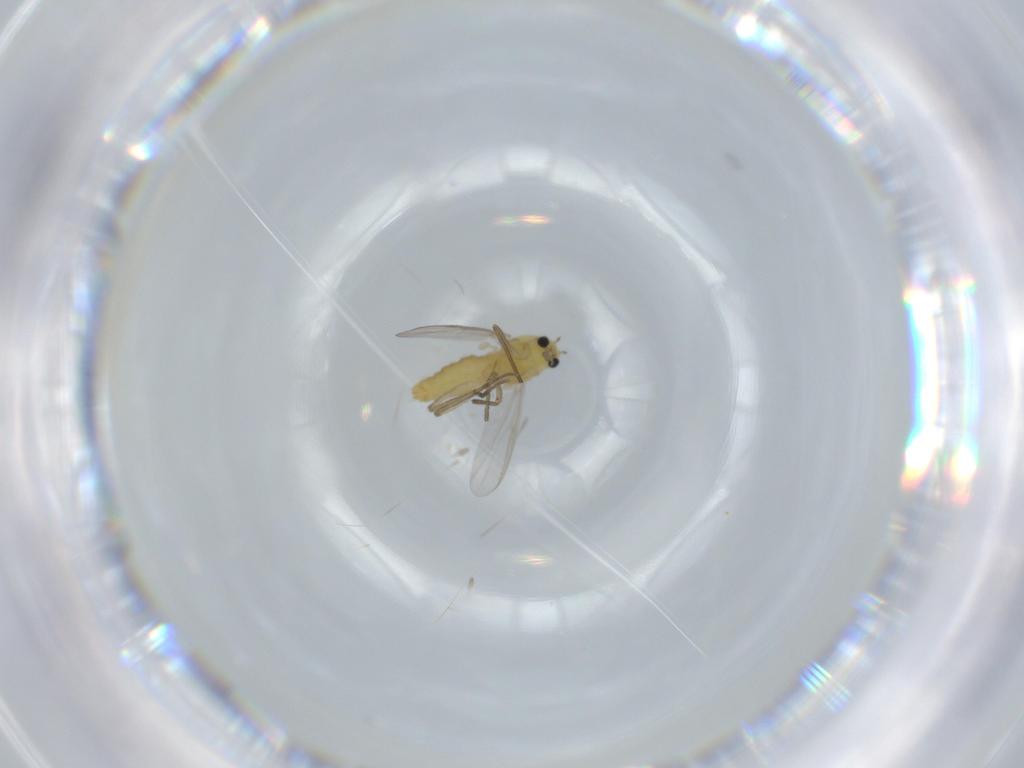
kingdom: Animalia
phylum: Arthropoda
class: Insecta
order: Diptera
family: Chironomidae
